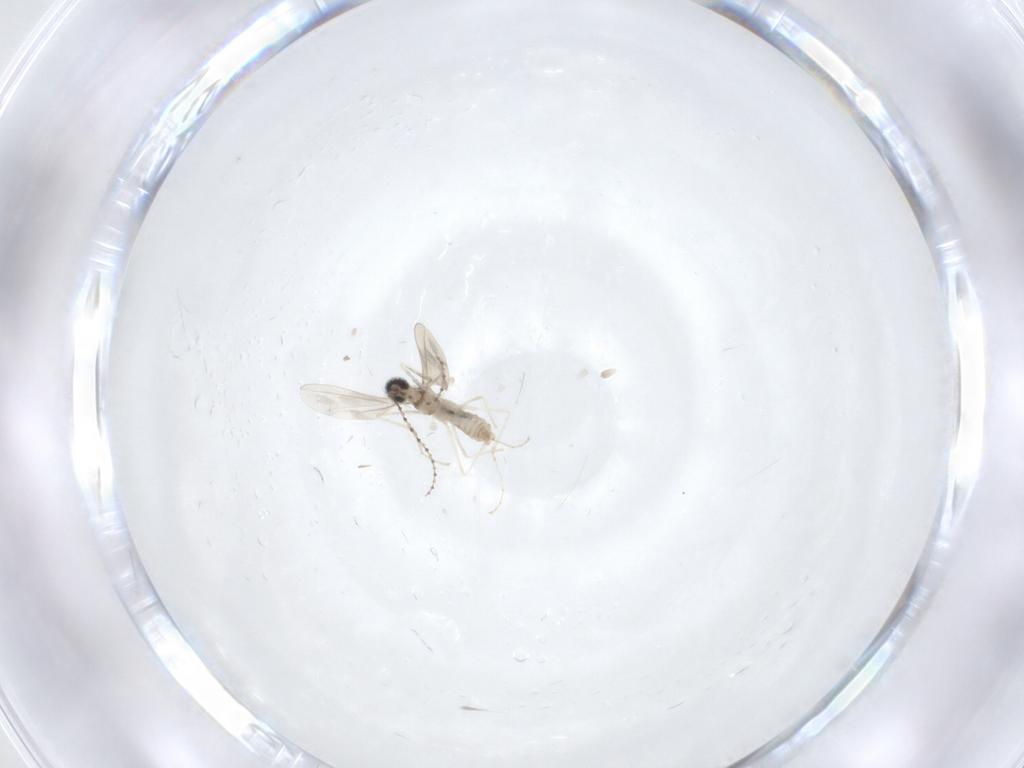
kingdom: Animalia
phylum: Arthropoda
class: Insecta
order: Diptera
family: Cecidomyiidae
